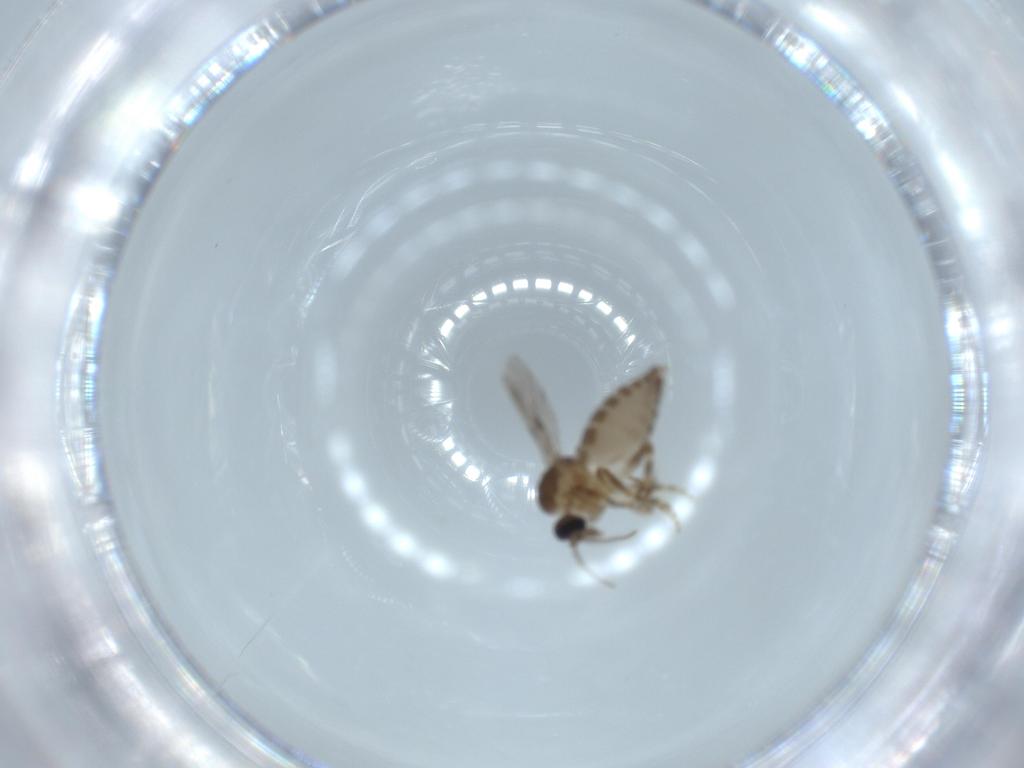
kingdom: Animalia
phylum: Arthropoda
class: Insecta
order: Diptera
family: Ceratopogonidae
